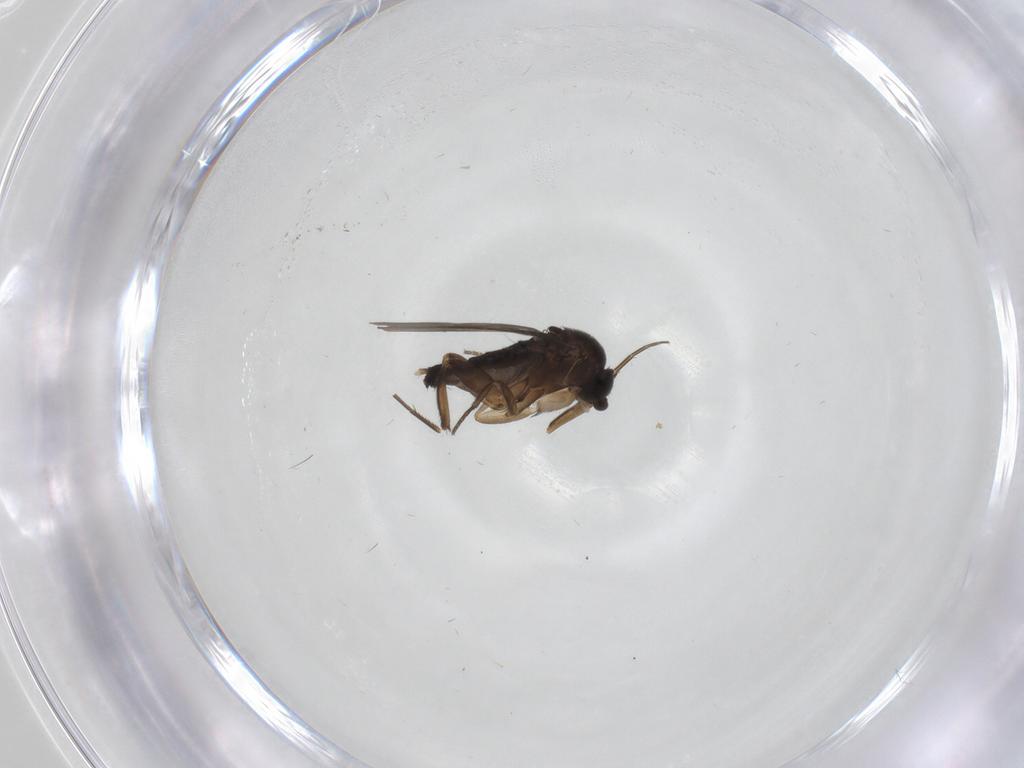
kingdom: Animalia
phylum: Arthropoda
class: Insecta
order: Diptera
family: Phoridae
